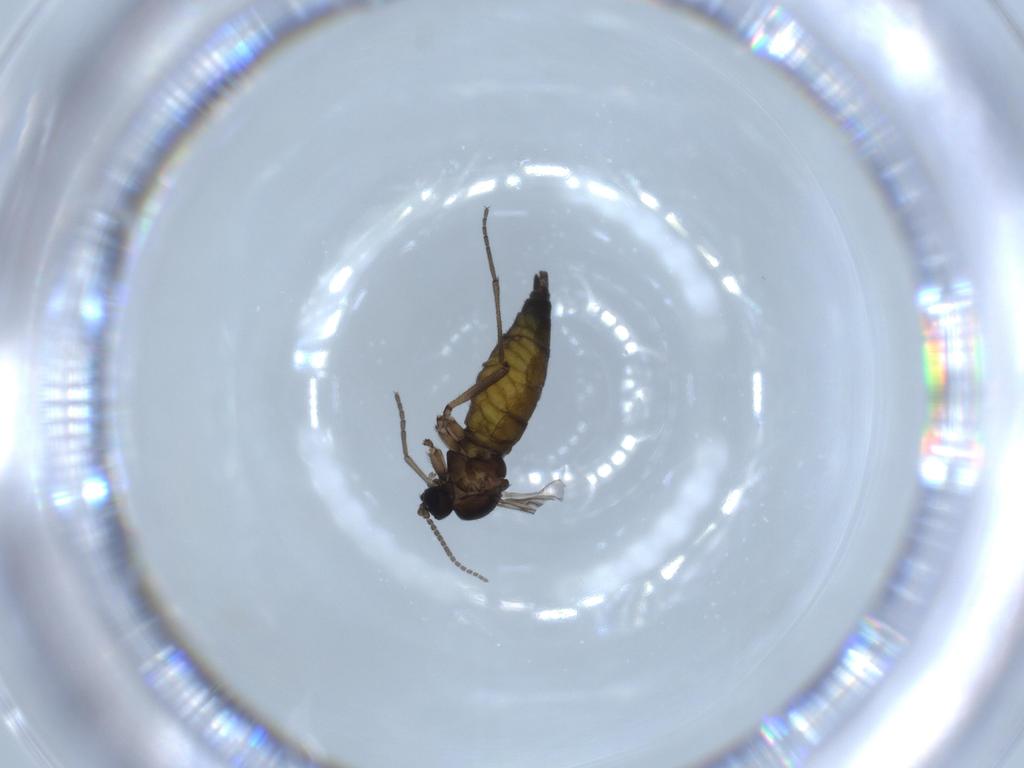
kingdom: Animalia
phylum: Arthropoda
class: Insecta
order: Diptera
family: Sciaridae
